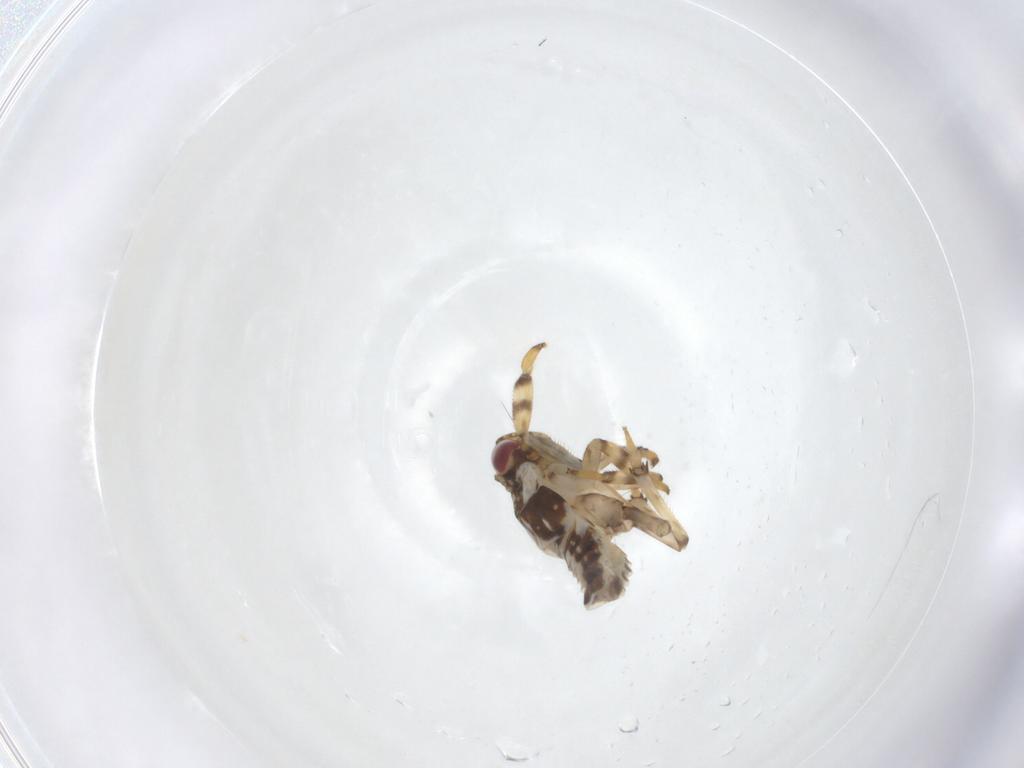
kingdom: Animalia
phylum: Arthropoda
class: Insecta
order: Hemiptera
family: Issidae
